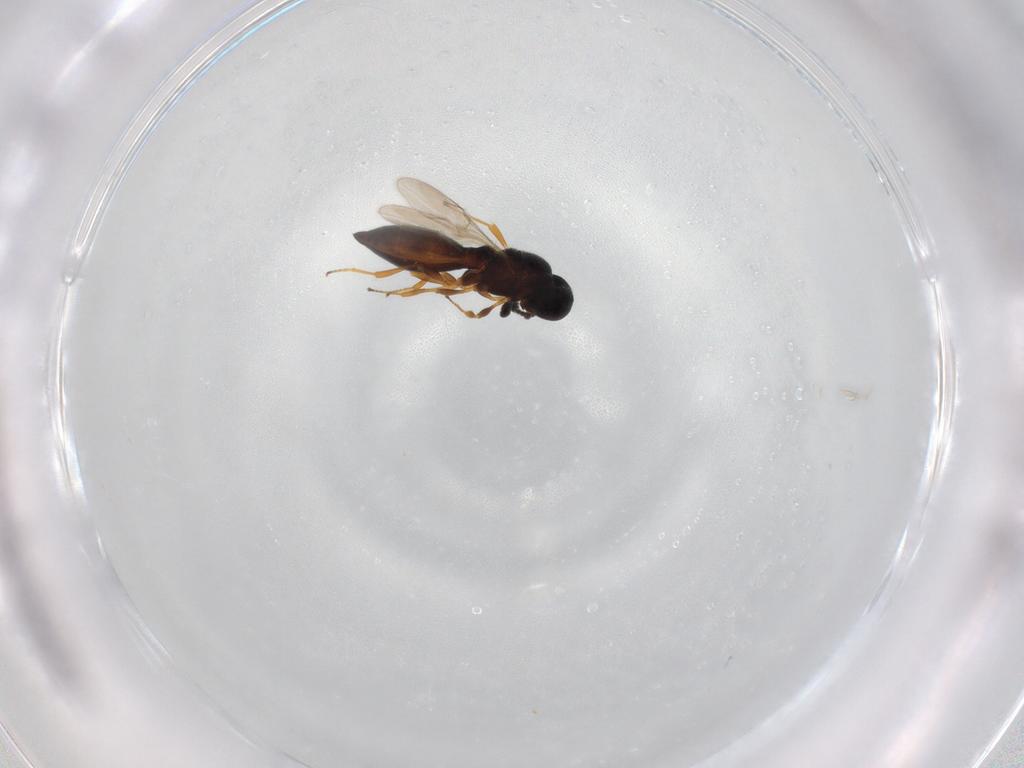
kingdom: Animalia
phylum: Arthropoda
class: Insecta
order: Hymenoptera
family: Scelionidae
